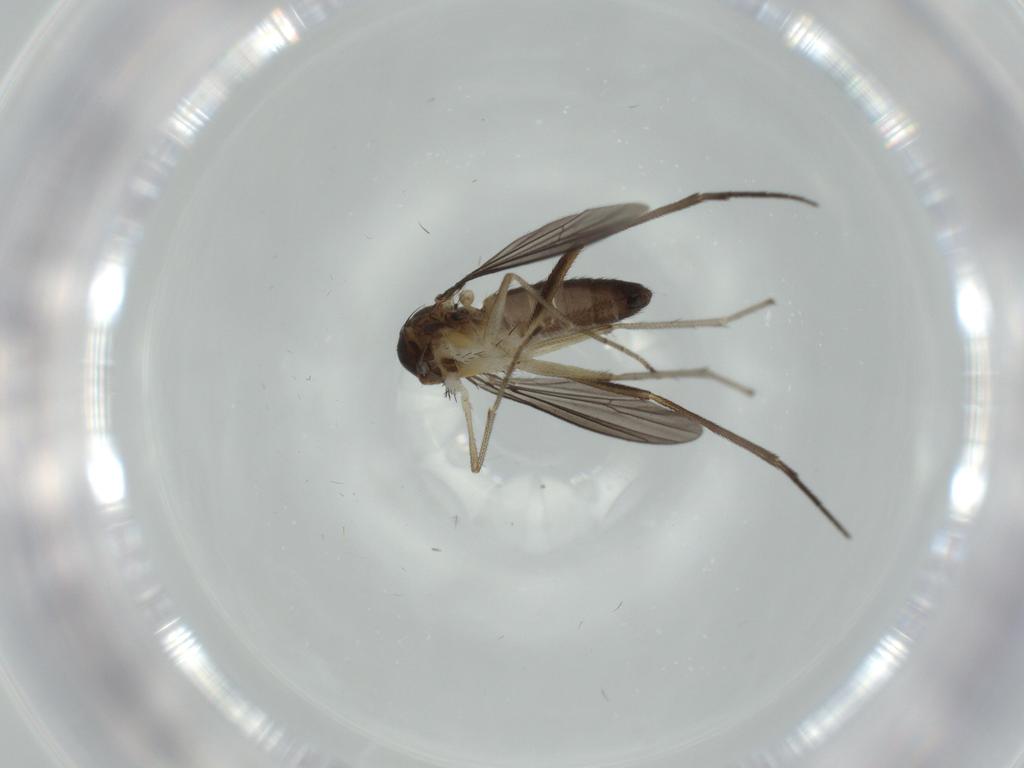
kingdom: Animalia
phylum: Arthropoda
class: Insecta
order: Diptera
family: Dolichopodidae
